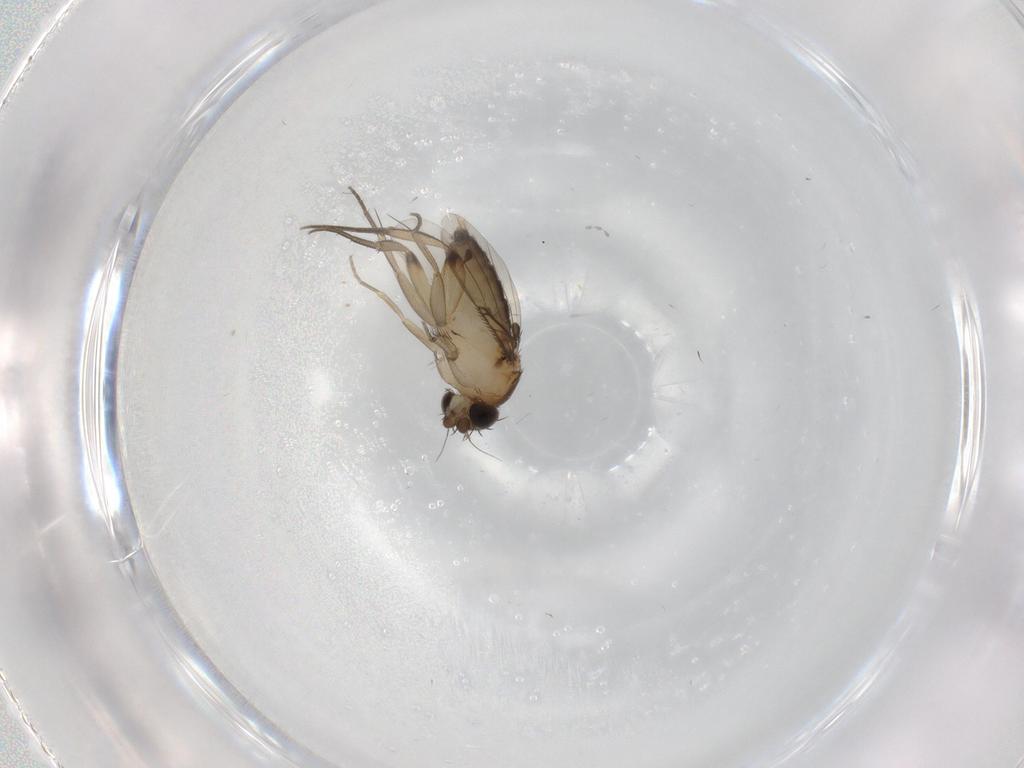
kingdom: Animalia
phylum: Arthropoda
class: Insecta
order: Diptera
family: Phoridae
